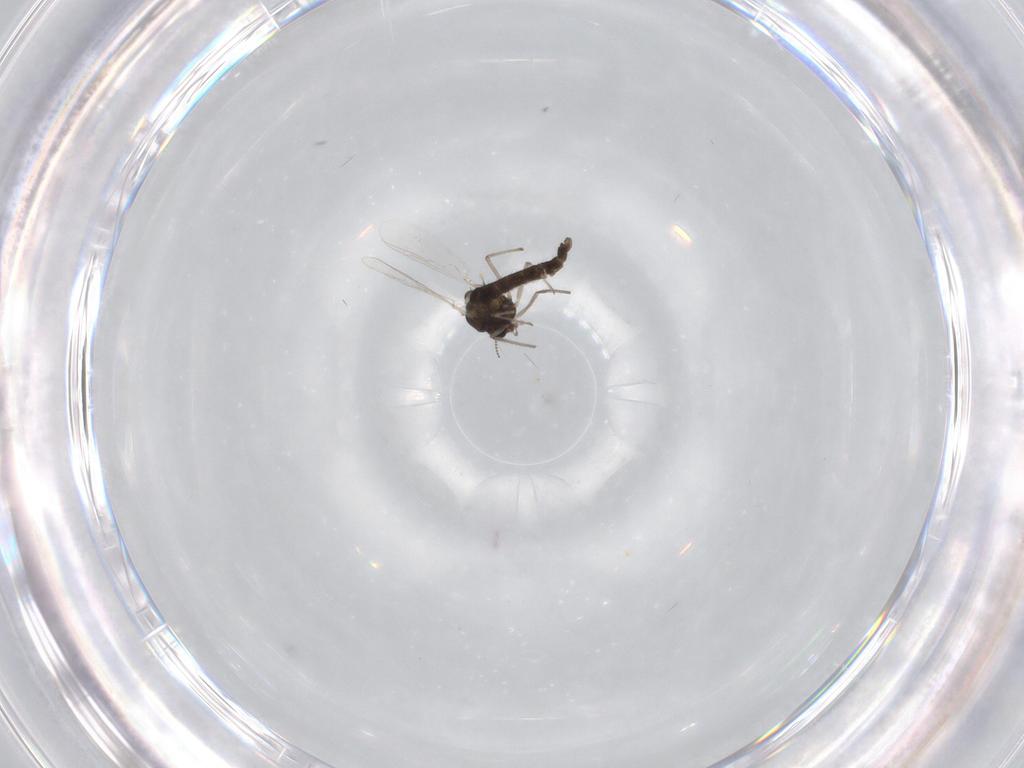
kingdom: Animalia
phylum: Arthropoda
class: Insecta
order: Diptera
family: Chironomidae
